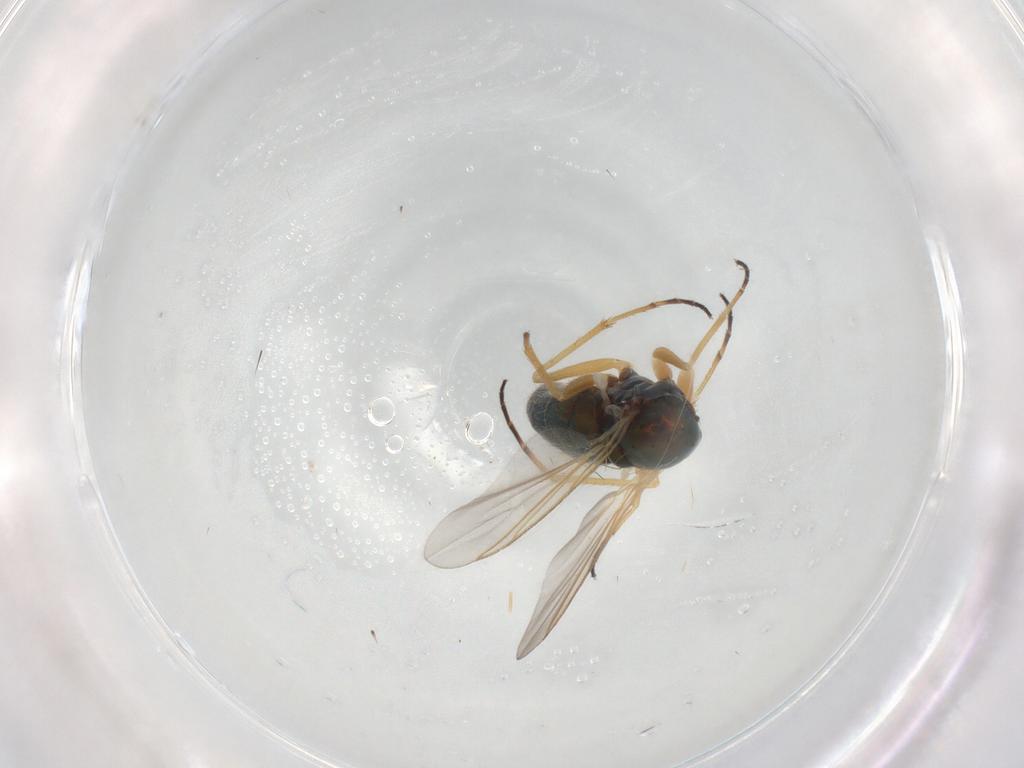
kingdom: Animalia
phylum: Arthropoda
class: Insecta
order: Diptera
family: Dolichopodidae
